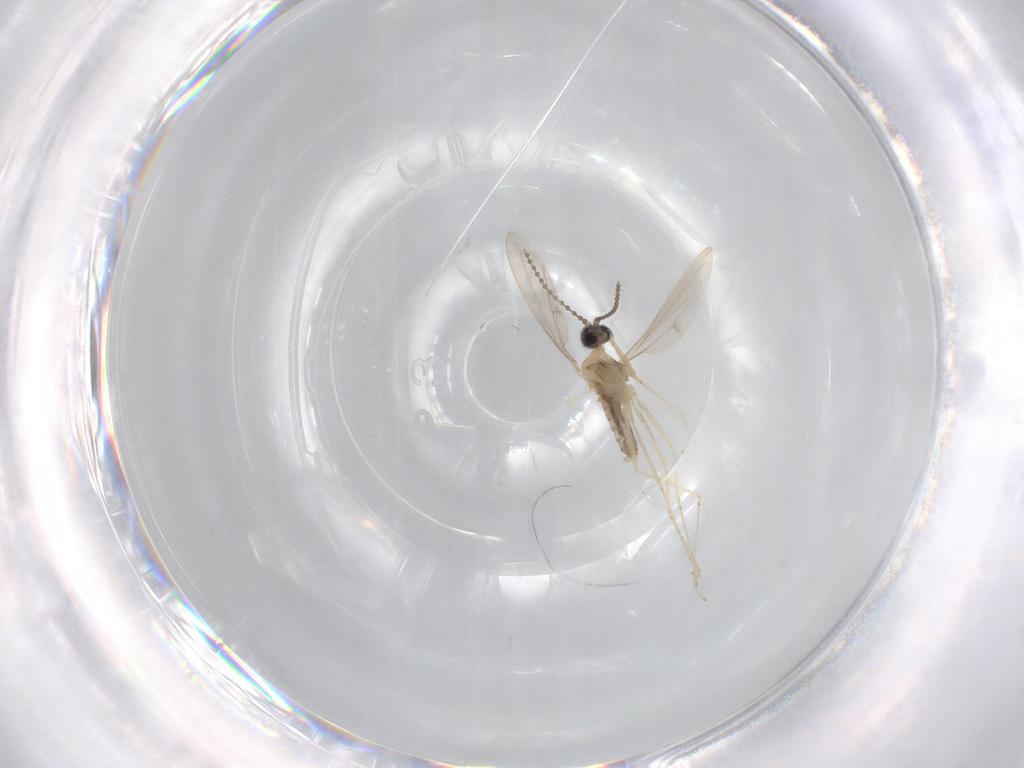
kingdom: Animalia
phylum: Arthropoda
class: Insecta
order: Diptera
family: Cecidomyiidae
